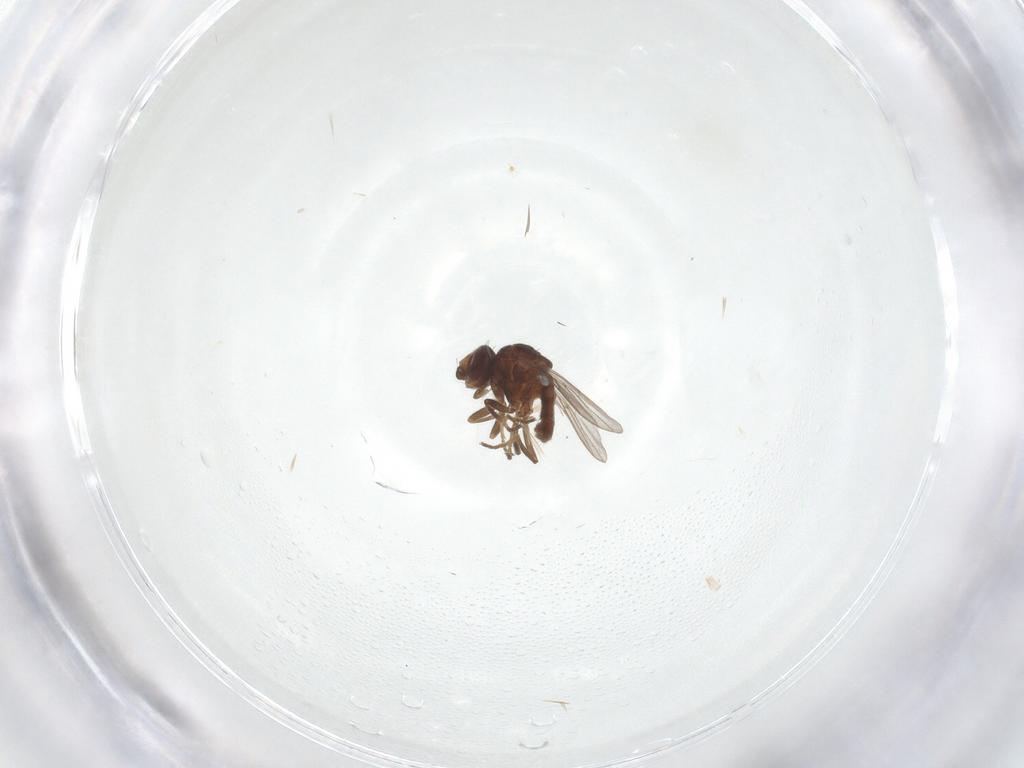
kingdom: Animalia
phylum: Arthropoda
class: Insecta
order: Diptera
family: Chloropidae
